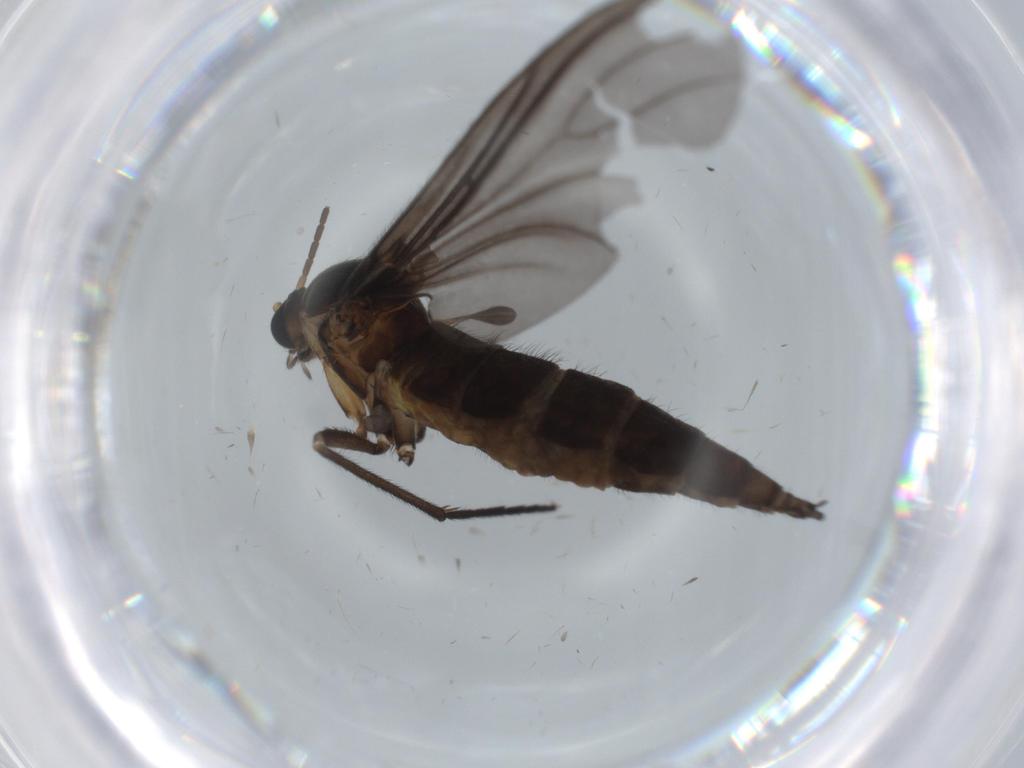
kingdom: Animalia
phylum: Arthropoda
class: Insecta
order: Diptera
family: Sciaridae
